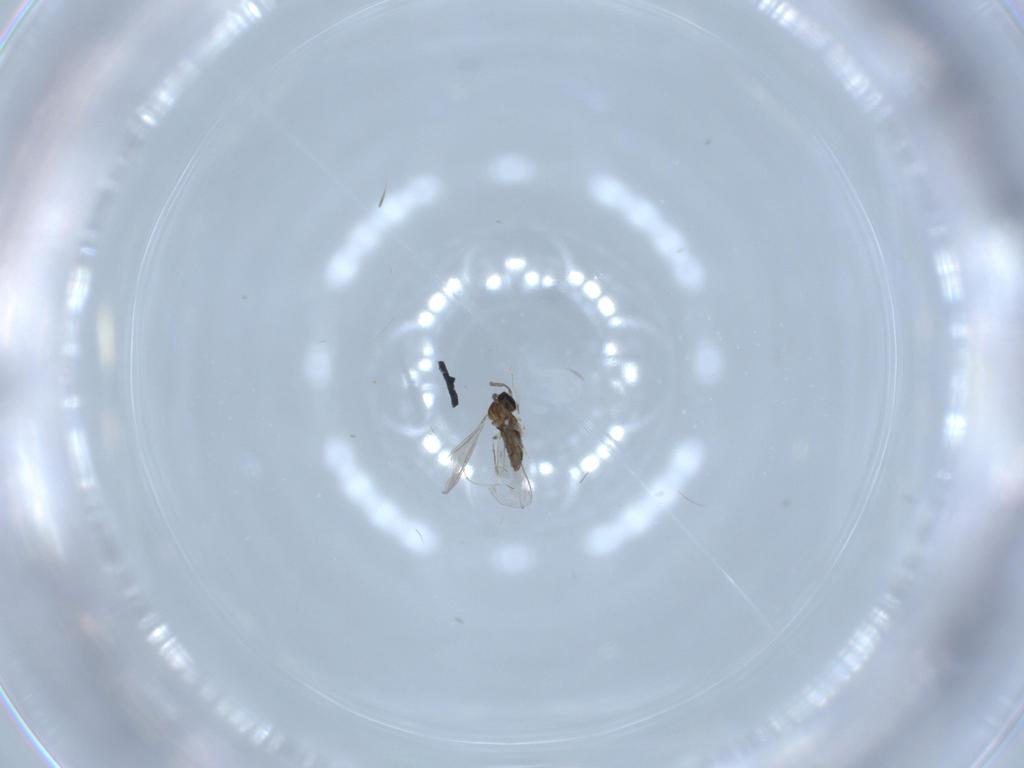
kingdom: Animalia
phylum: Arthropoda
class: Insecta
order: Diptera
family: Cecidomyiidae
